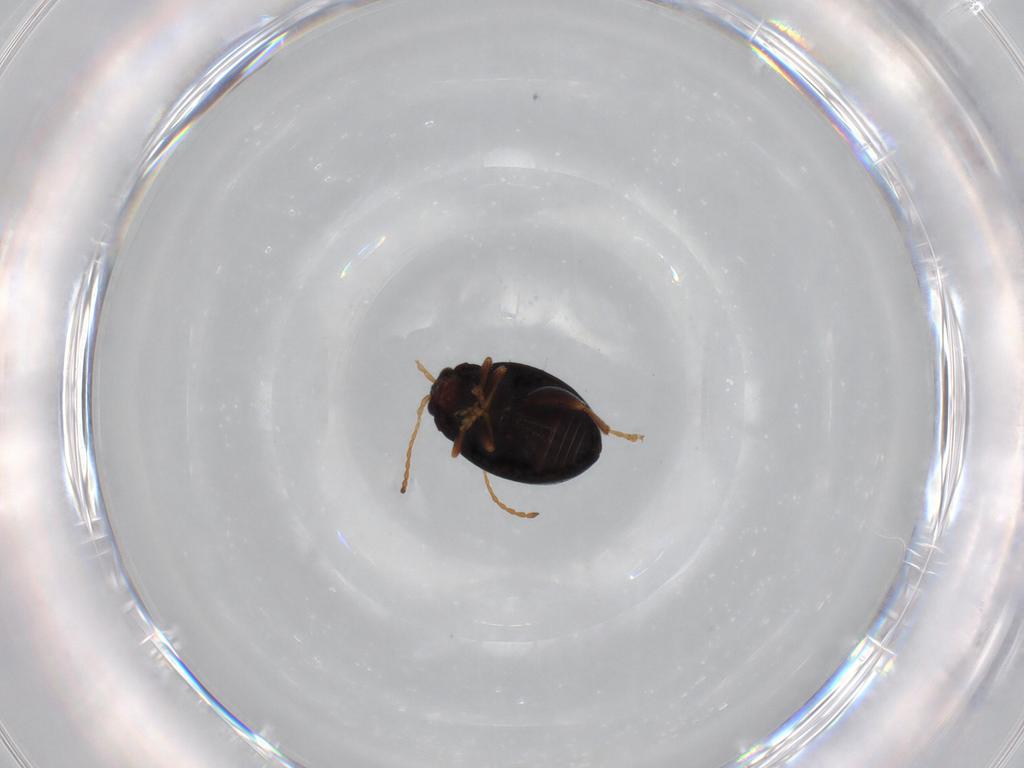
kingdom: Animalia
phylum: Arthropoda
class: Insecta
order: Coleoptera
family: Chrysomelidae
